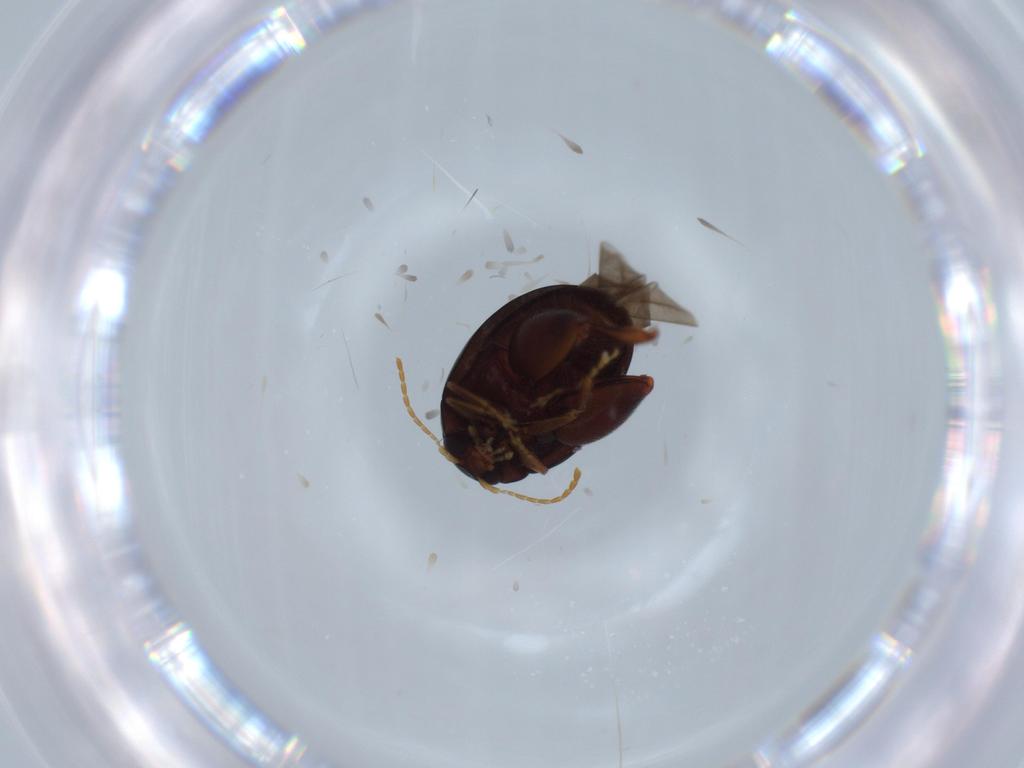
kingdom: Animalia
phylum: Arthropoda
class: Insecta
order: Coleoptera
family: Chrysomelidae
